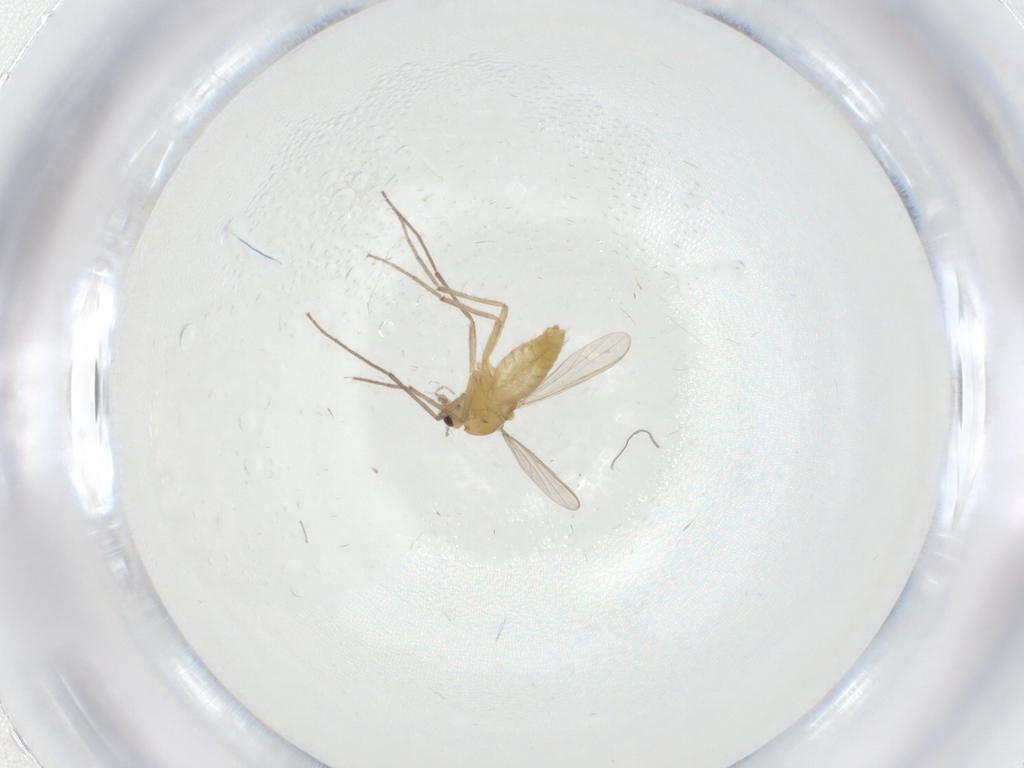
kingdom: Animalia
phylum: Arthropoda
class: Insecta
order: Diptera
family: Chironomidae
